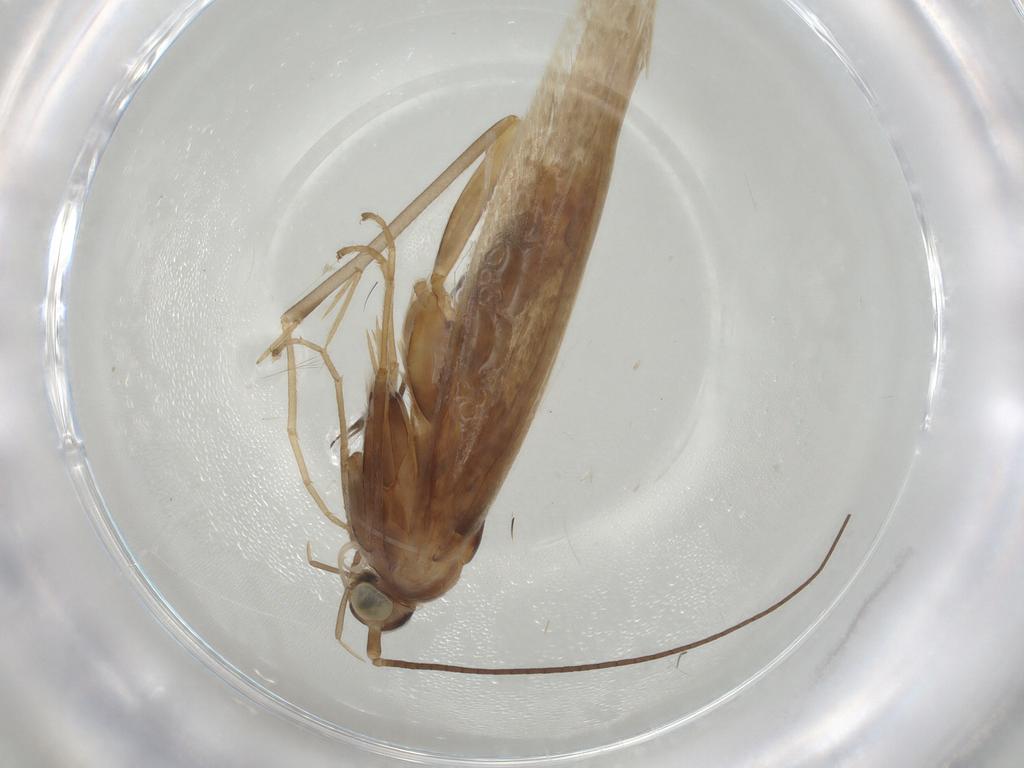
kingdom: Animalia
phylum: Arthropoda
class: Insecta
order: Lepidoptera
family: Coleophoridae
